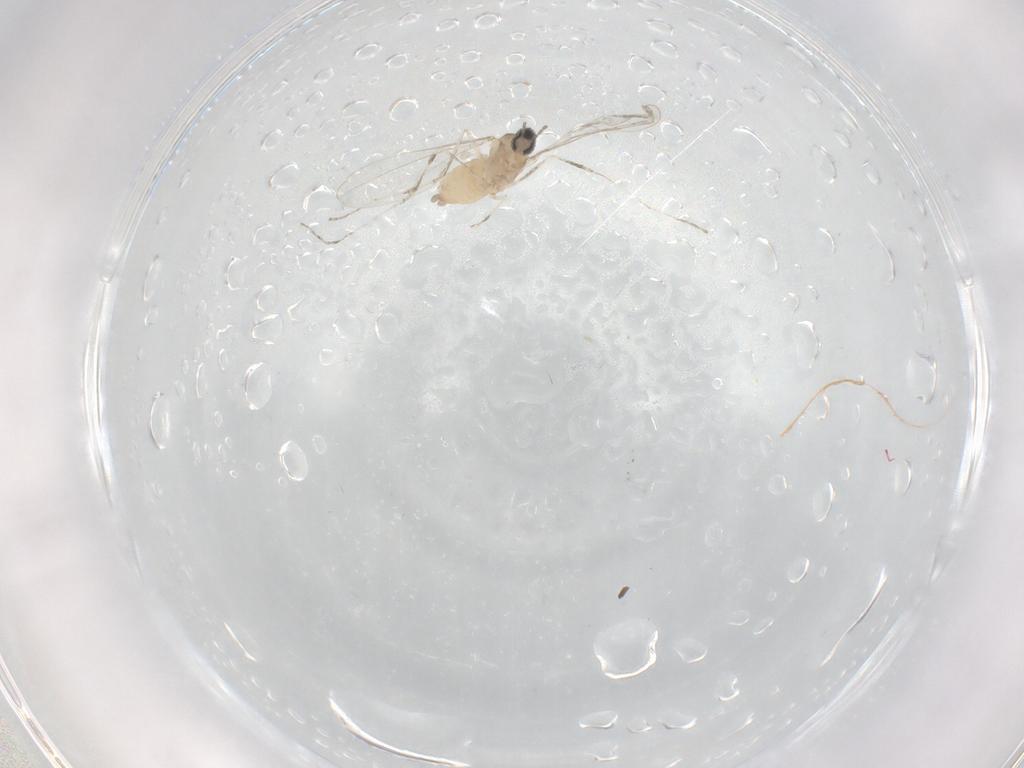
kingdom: Animalia
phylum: Arthropoda
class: Insecta
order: Diptera
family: Cecidomyiidae
